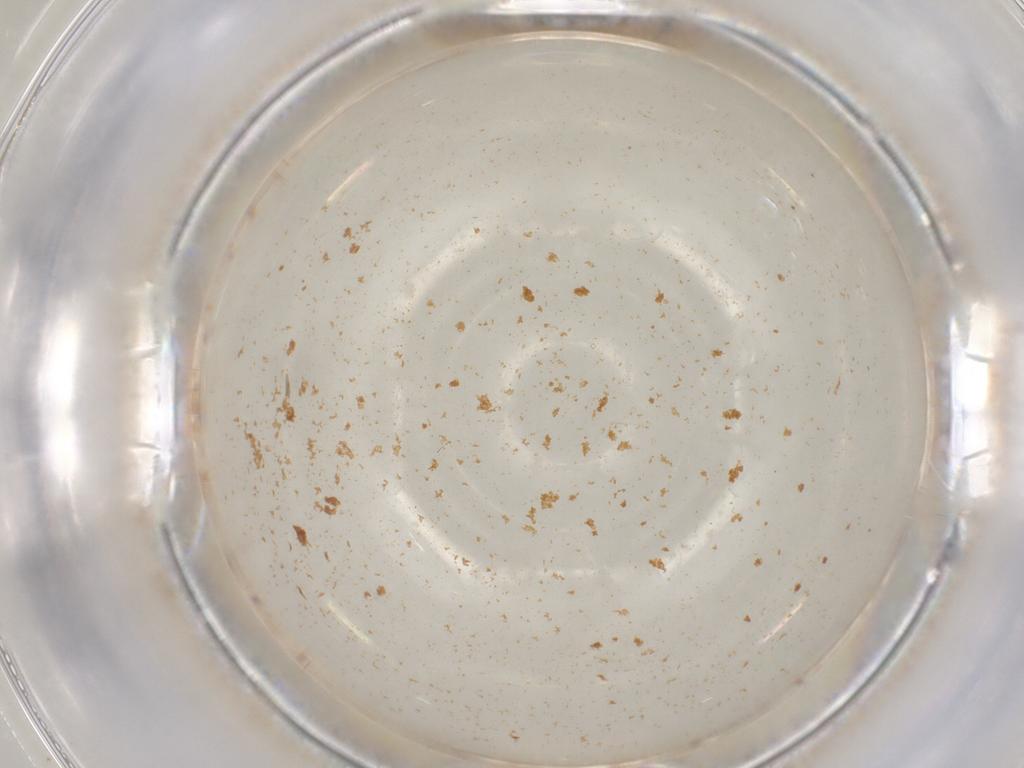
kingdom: Animalia
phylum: Arthropoda
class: Insecta
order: Hymenoptera
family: Formicidae
